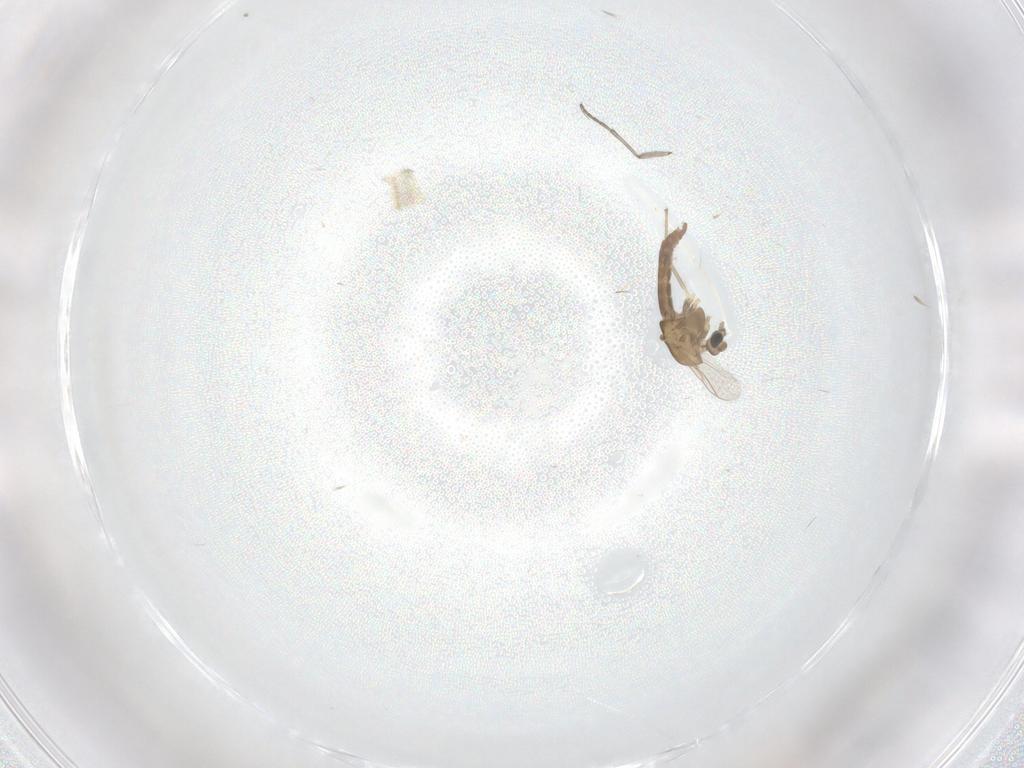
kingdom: Animalia
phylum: Arthropoda
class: Insecta
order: Diptera
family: Chironomidae
